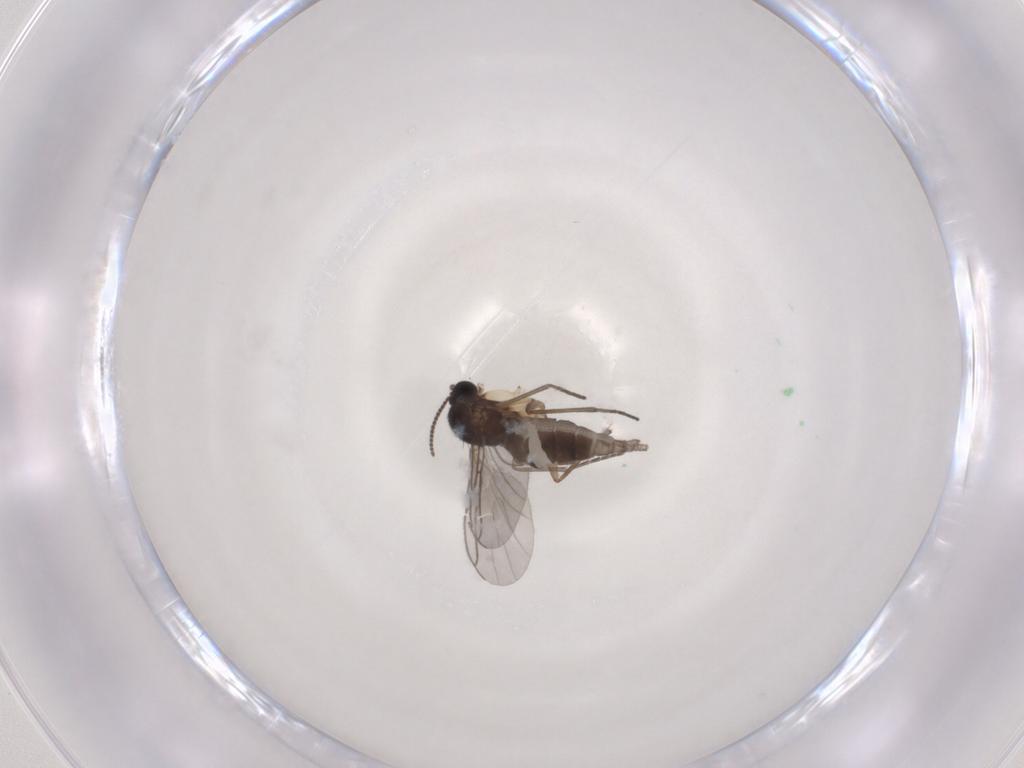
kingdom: Animalia
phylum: Arthropoda
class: Insecta
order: Diptera
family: Sciaridae
